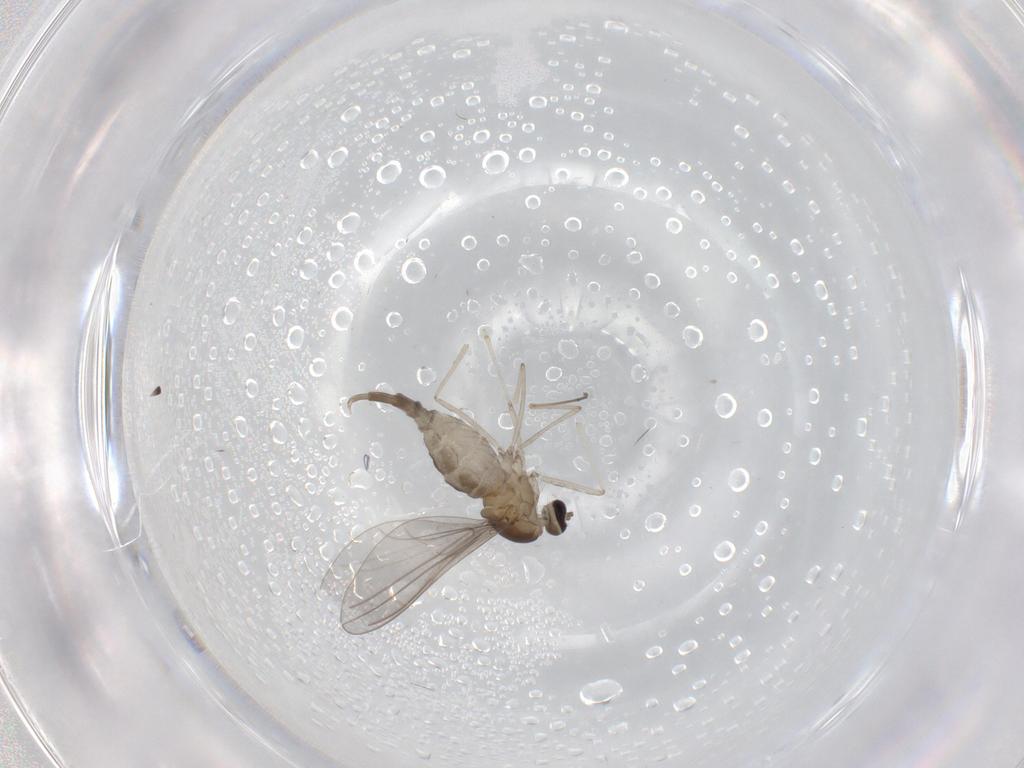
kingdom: Animalia
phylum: Arthropoda
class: Insecta
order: Diptera
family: Cecidomyiidae
